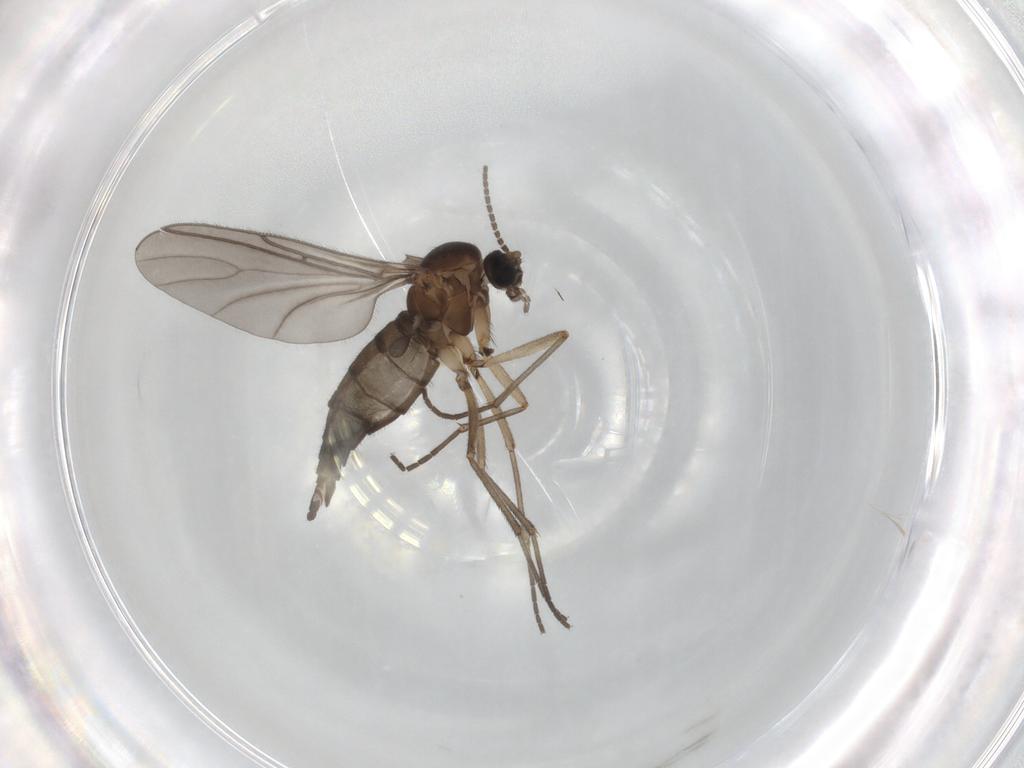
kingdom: Animalia
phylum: Arthropoda
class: Insecta
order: Diptera
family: Sciaridae
